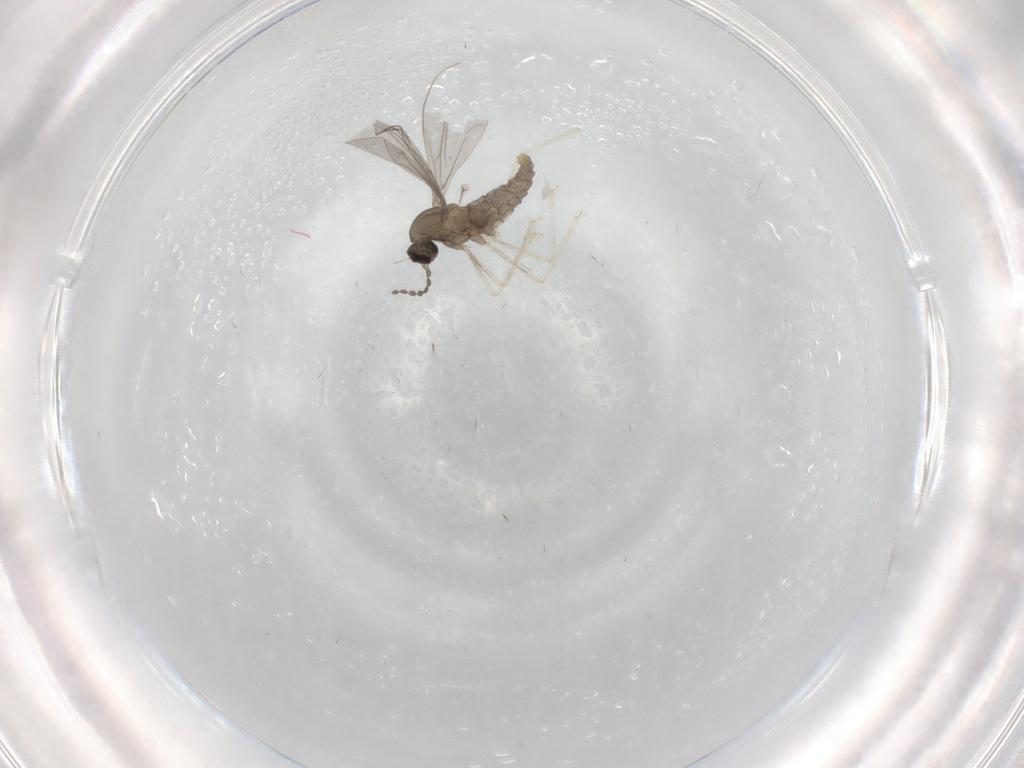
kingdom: Animalia
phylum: Arthropoda
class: Insecta
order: Diptera
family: Cecidomyiidae
